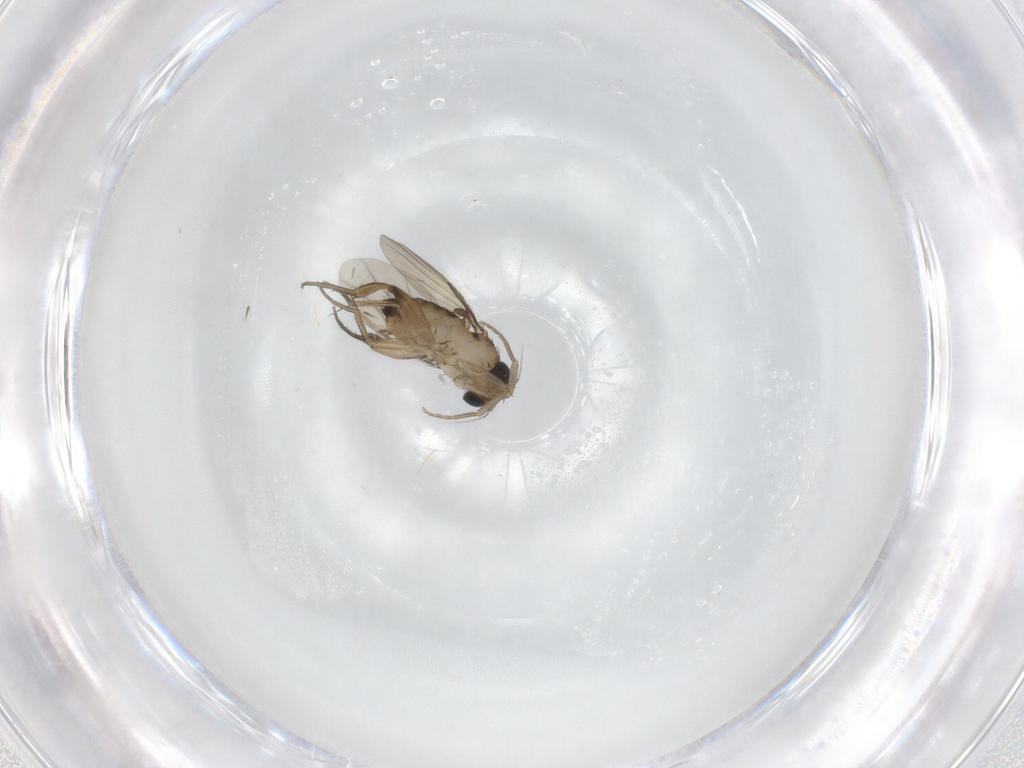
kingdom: Animalia
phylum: Arthropoda
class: Insecta
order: Diptera
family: Phoridae
